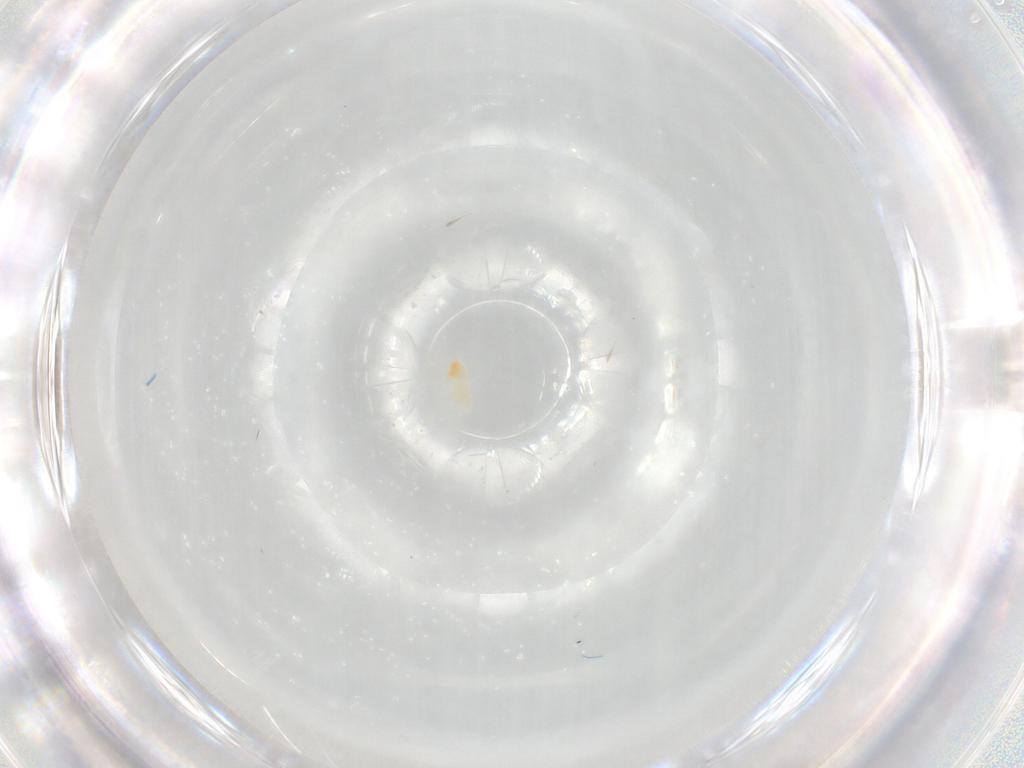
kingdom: Animalia
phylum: Arthropoda
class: Arachnida
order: Trombidiformes
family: Eupodidae
